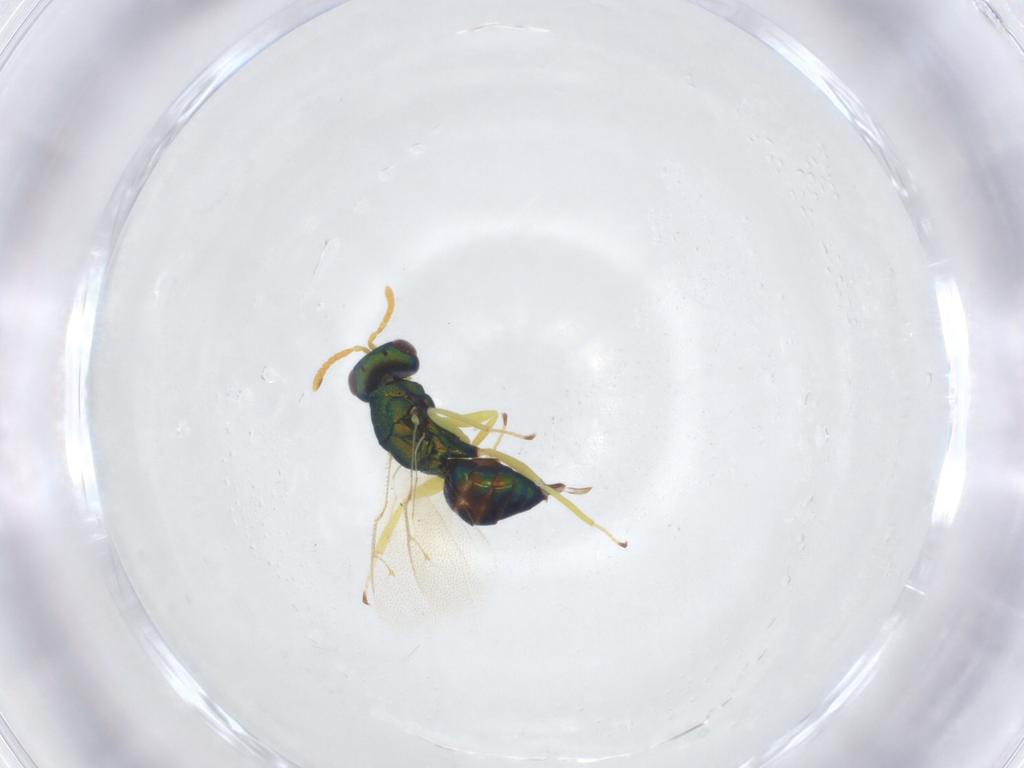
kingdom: Animalia
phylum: Arthropoda
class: Insecta
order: Hymenoptera
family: Pteromalidae
